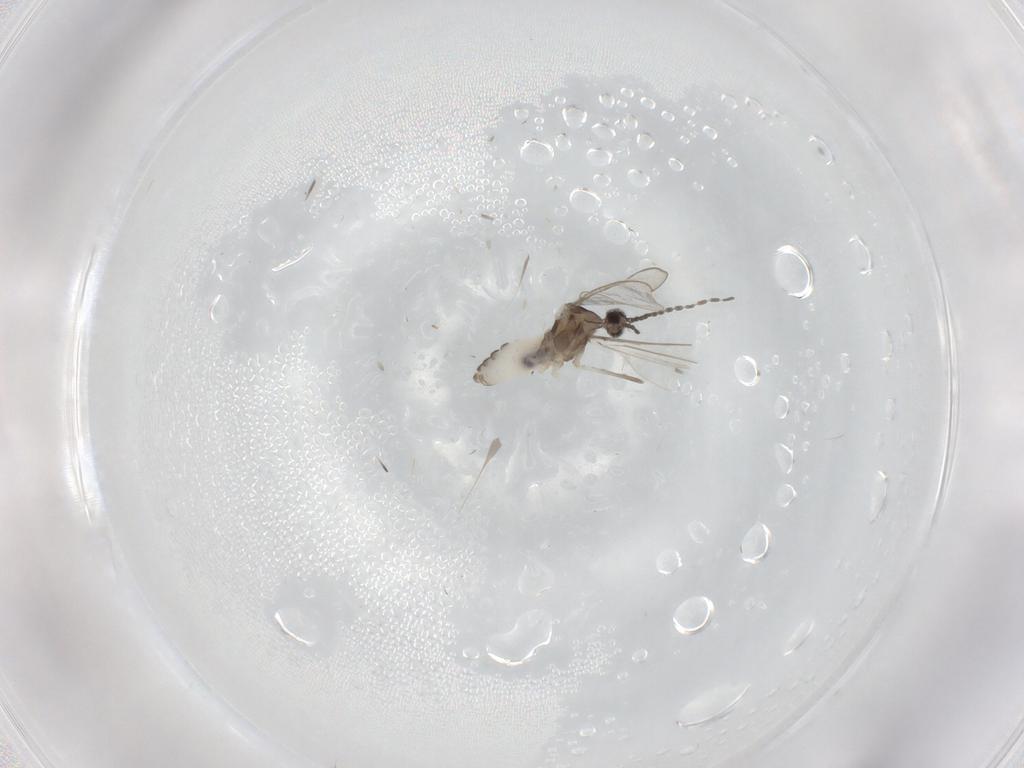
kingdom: Animalia
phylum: Arthropoda
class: Insecta
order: Diptera
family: Cecidomyiidae
